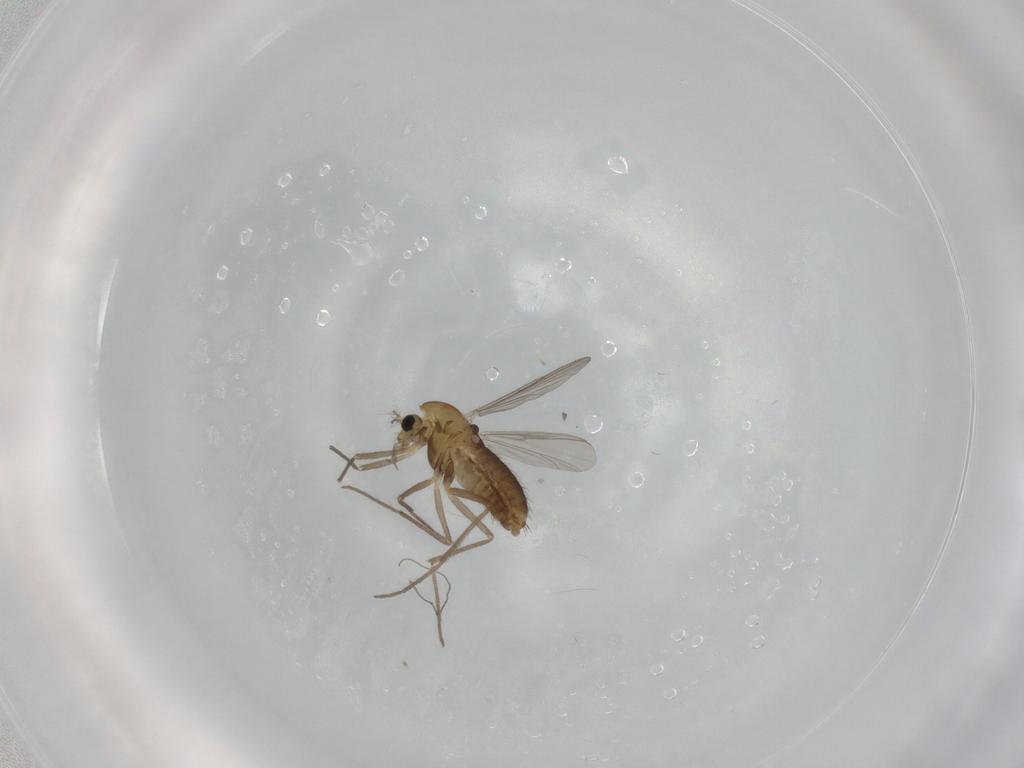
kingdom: Animalia
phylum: Arthropoda
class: Insecta
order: Diptera
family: Chironomidae
